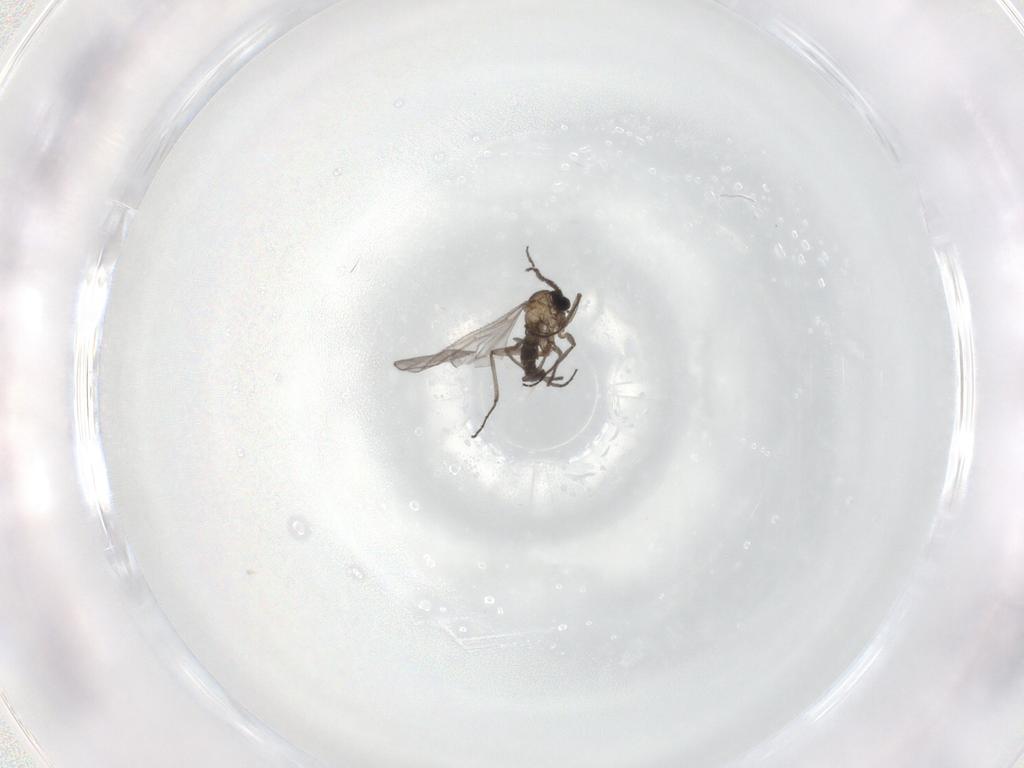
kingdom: Animalia
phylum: Arthropoda
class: Insecta
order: Diptera
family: Sciaridae
